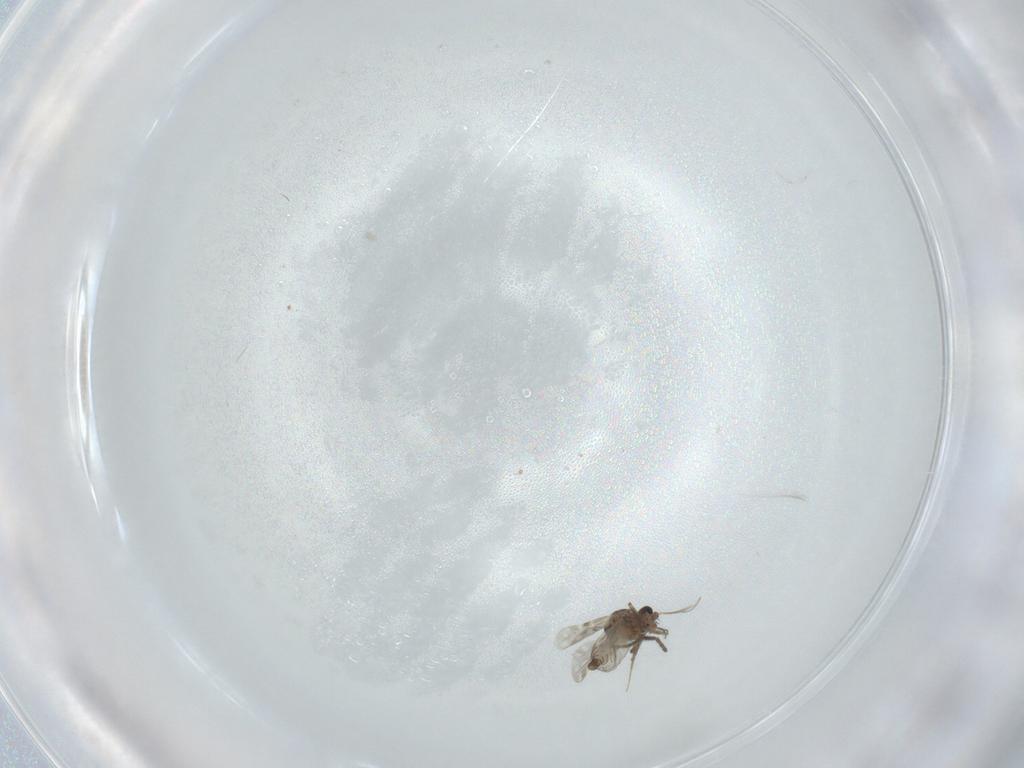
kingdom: Animalia
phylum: Arthropoda
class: Insecta
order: Diptera
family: Sciaridae
